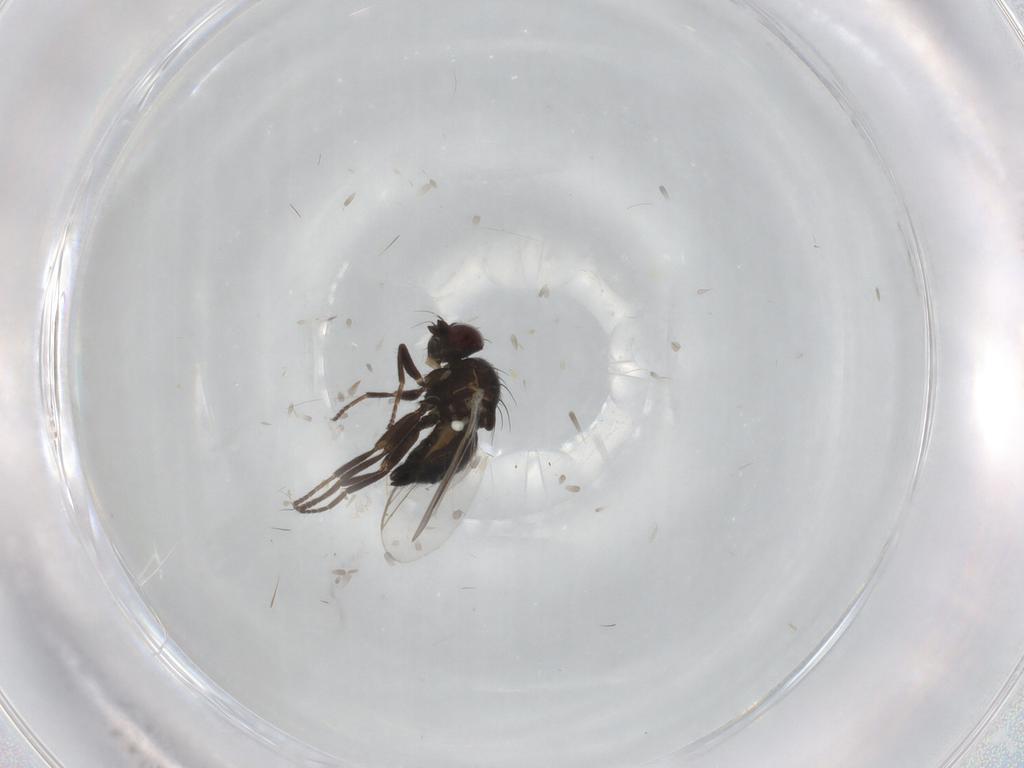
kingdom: Animalia
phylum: Arthropoda
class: Insecta
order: Diptera
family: Agromyzidae
